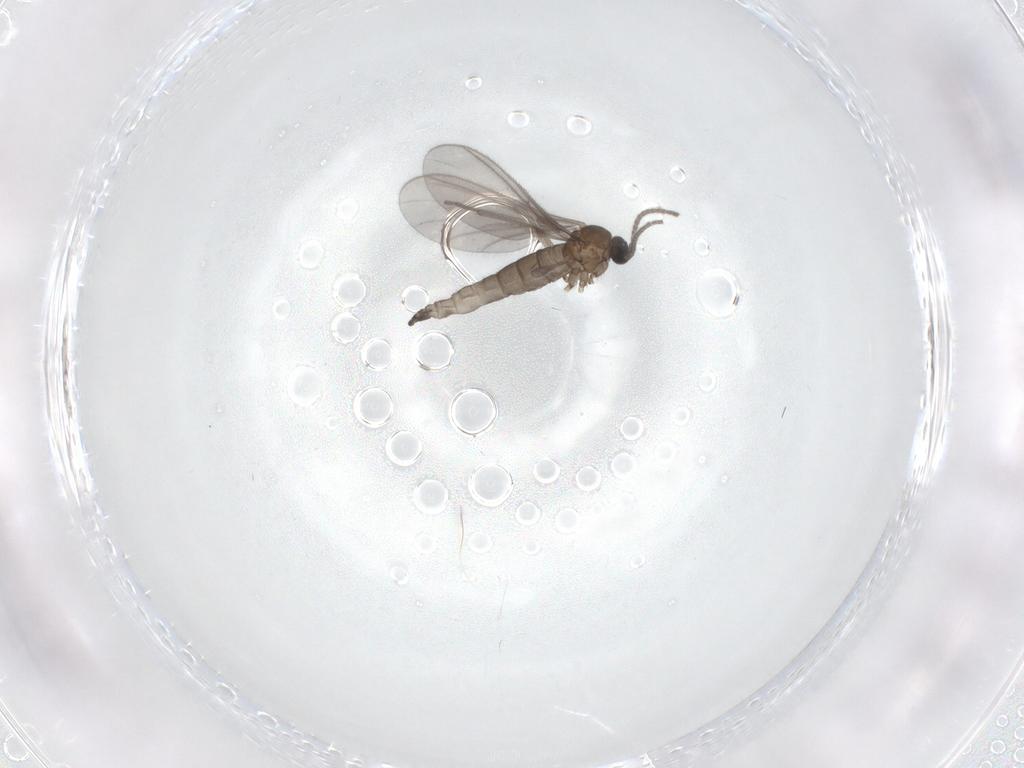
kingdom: Animalia
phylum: Arthropoda
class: Insecta
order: Diptera
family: Sciaridae
